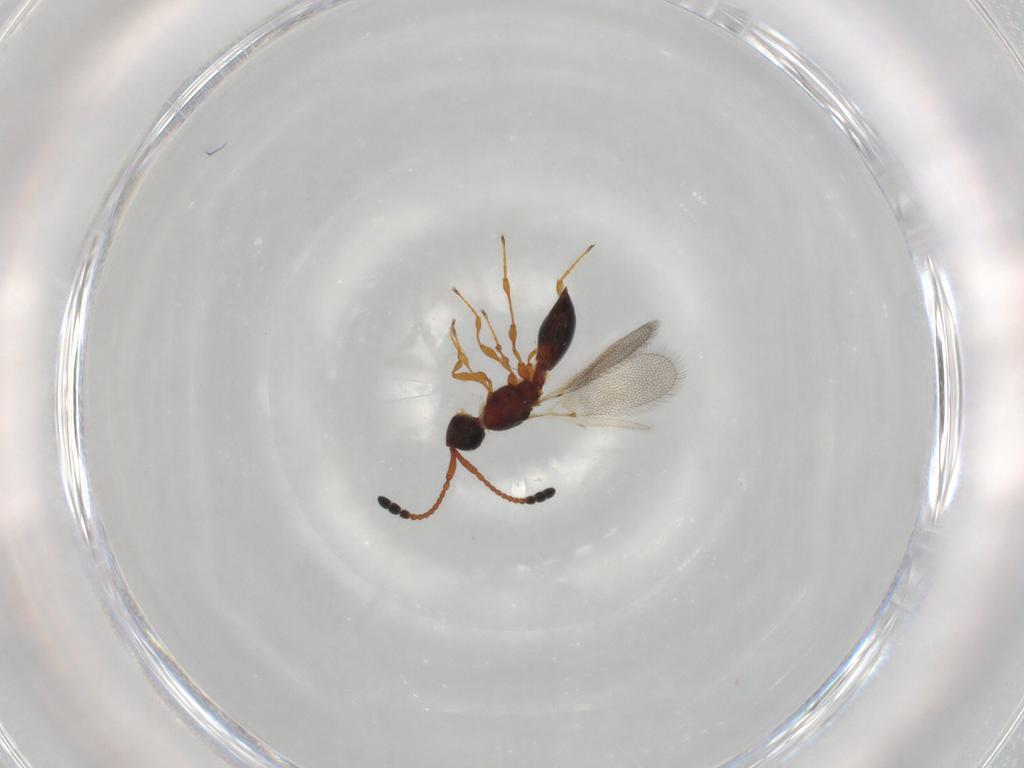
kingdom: Animalia
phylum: Arthropoda
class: Insecta
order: Hymenoptera
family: Diapriidae
